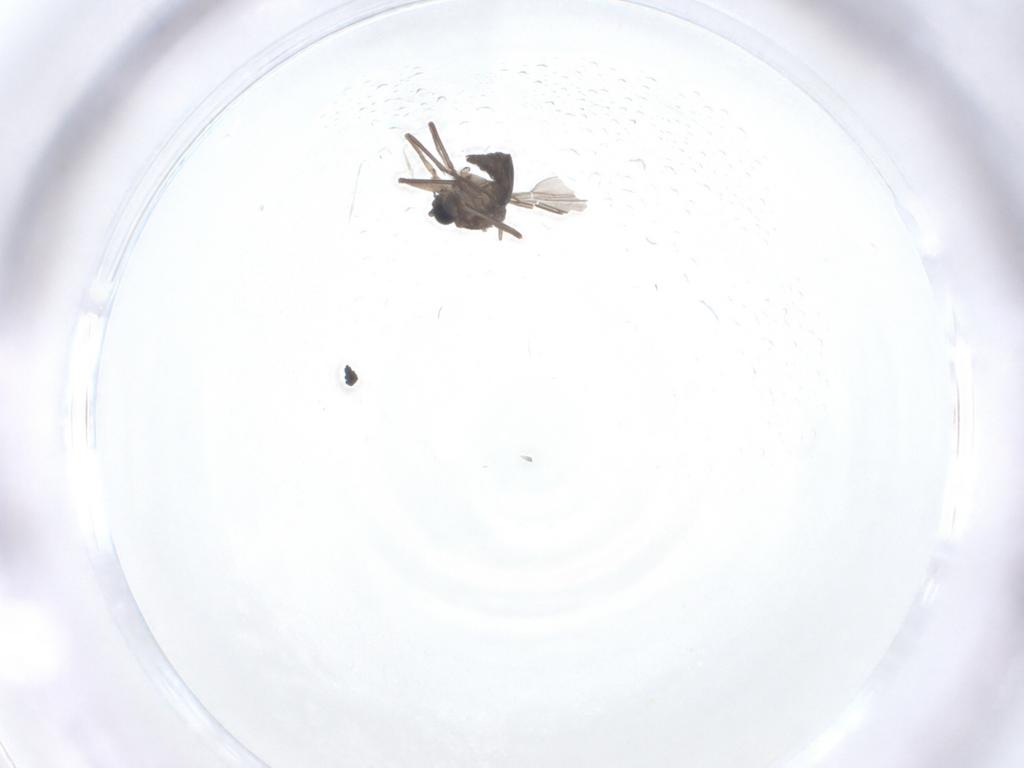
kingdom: Animalia
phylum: Arthropoda
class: Insecta
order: Diptera
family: Sciaridae
